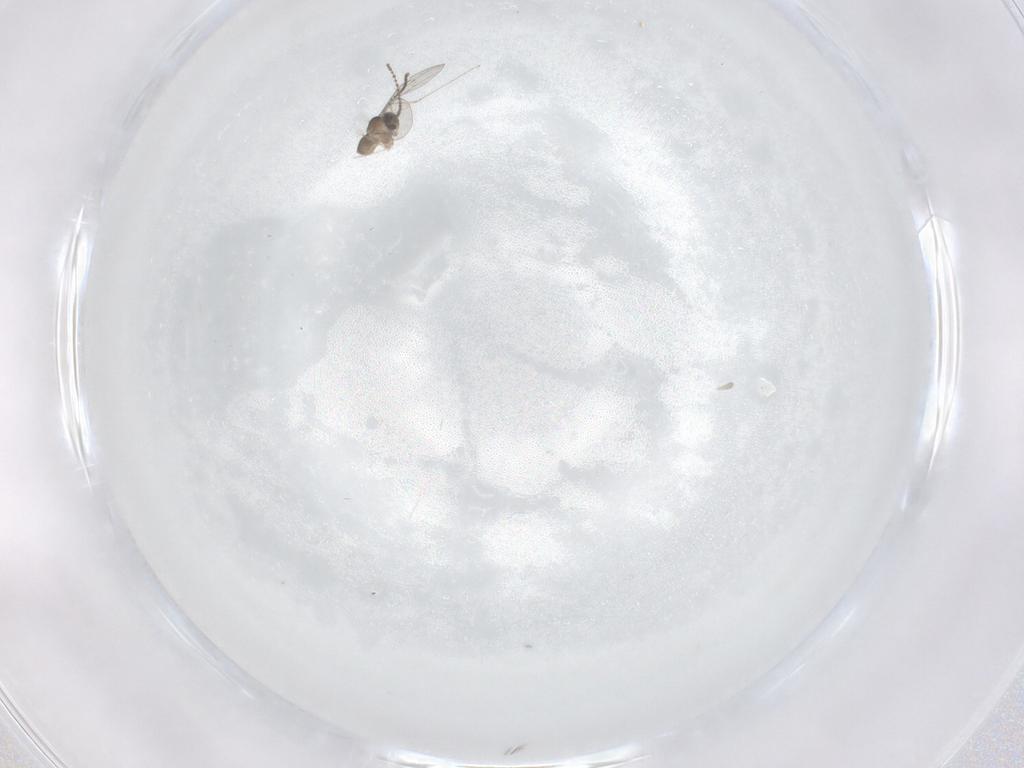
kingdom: Animalia
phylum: Arthropoda
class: Insecta
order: Diptera
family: Cecidomyiidae
